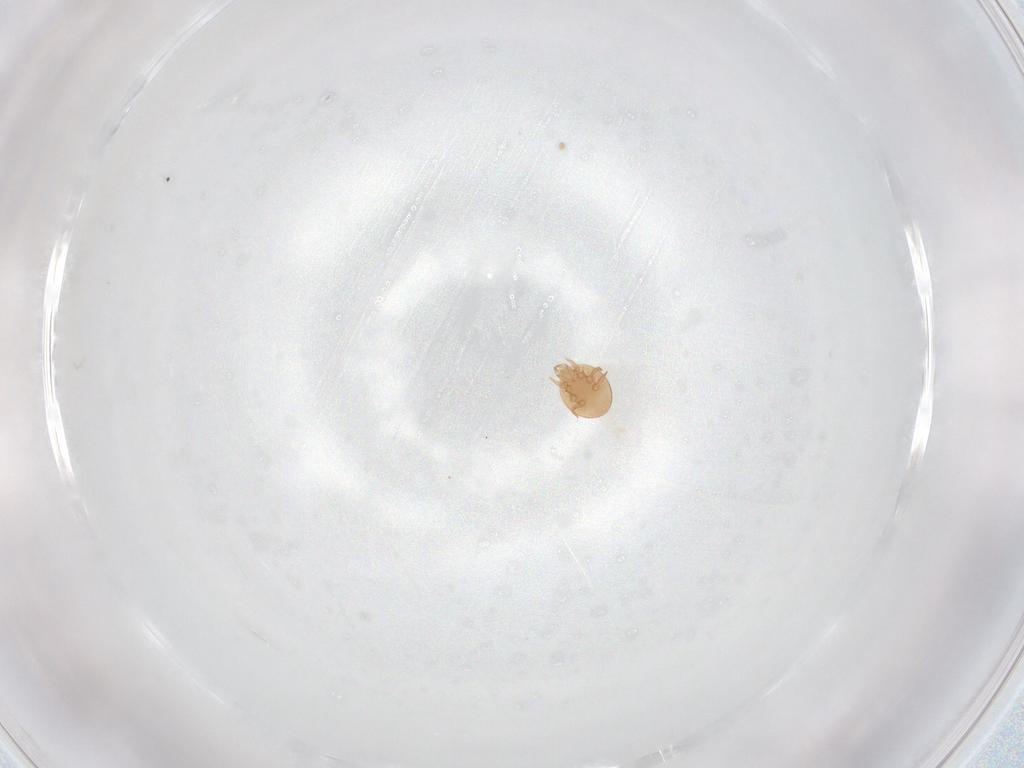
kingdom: Animalia
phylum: Arthropoda
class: Arachnida
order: Mesostigmata
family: Trematuridae
